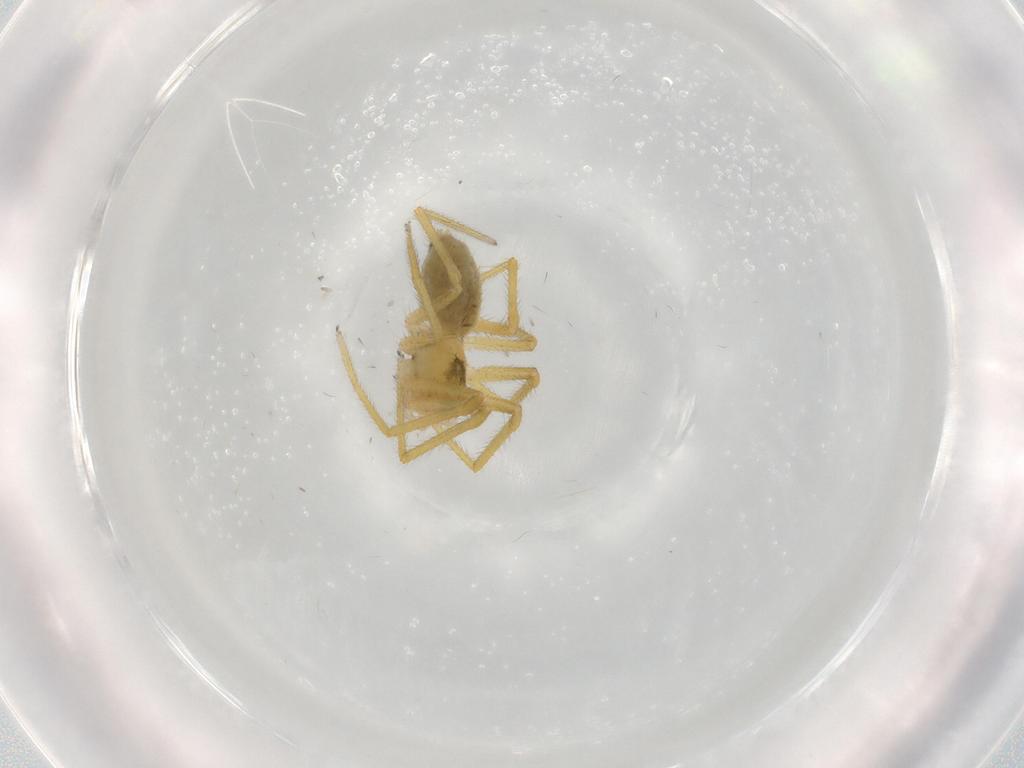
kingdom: Animalia
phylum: Arthropoda
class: Arachnida
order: Araneae
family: Linyphiidae
